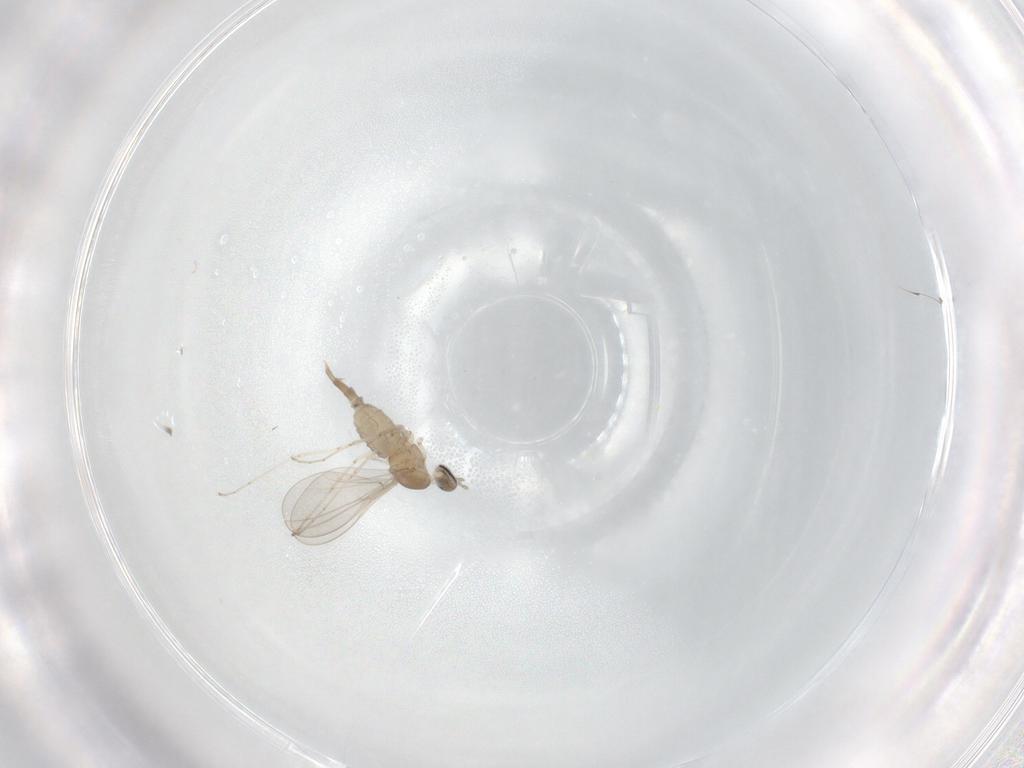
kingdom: Animalia
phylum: Arthropoda
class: Insecta
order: Diptera
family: Cecidomyiidae
